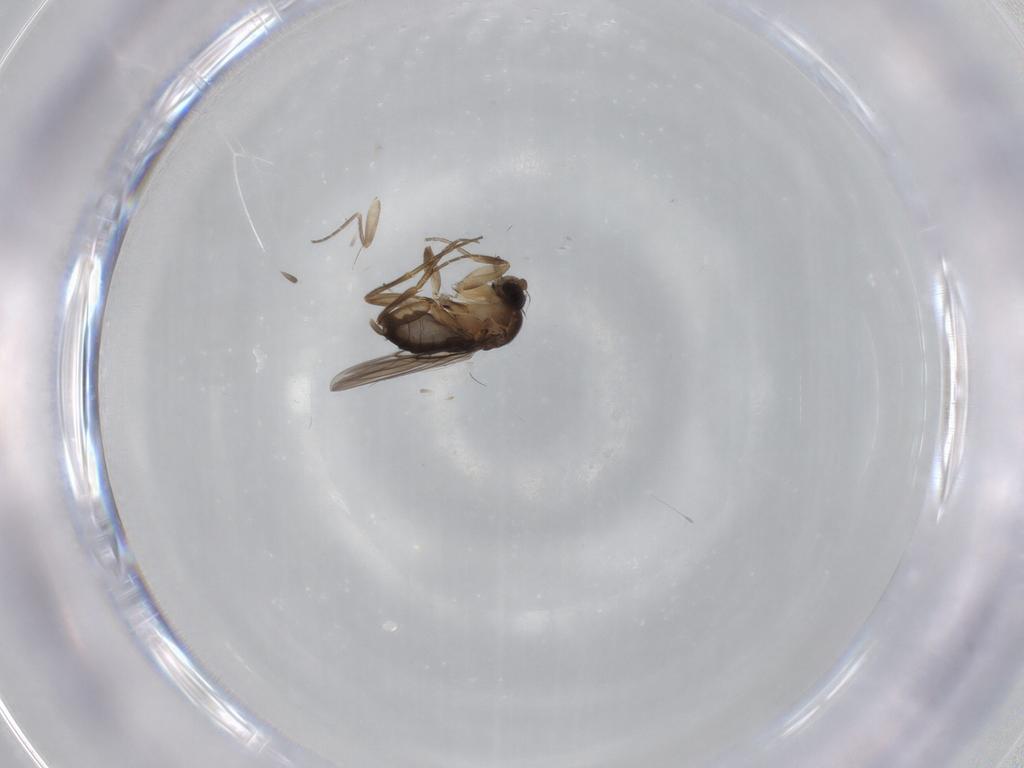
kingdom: Animalia
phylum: Arthropoda
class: Insecta
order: Diptera
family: Phoridae
